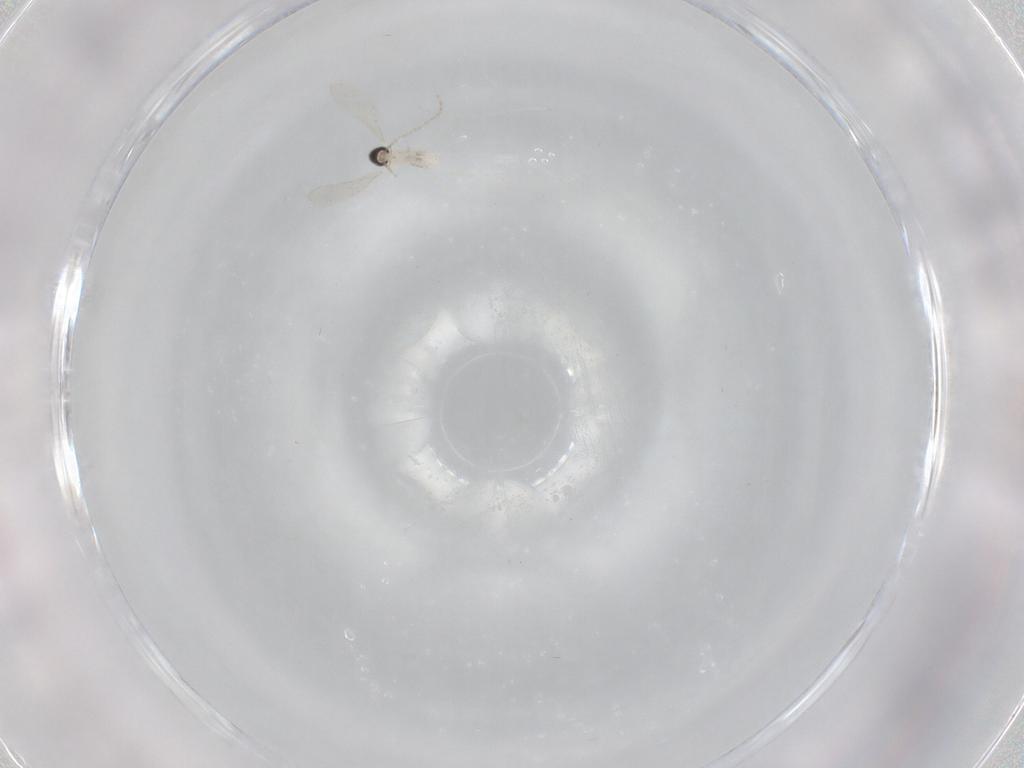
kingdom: Animalia
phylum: Arthropoda
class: Insecta
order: Diptera
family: Cecidomyiidae
